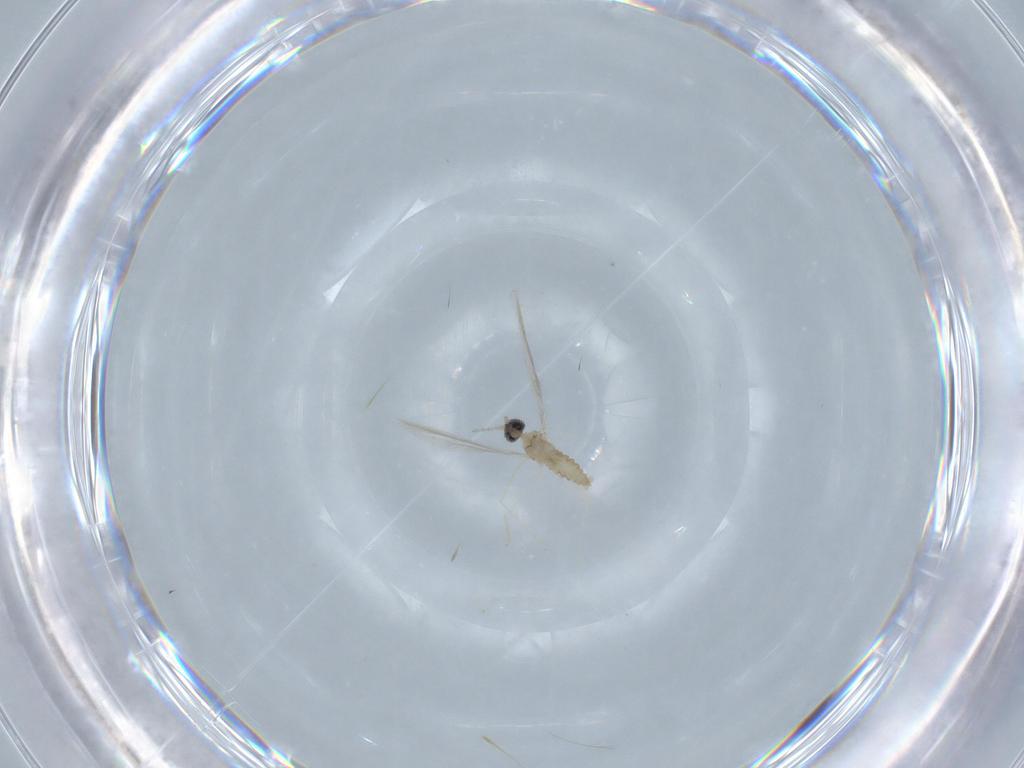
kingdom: Animalia
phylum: Arthropoda
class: Insecta
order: Diptera
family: Cecidomyiidae
